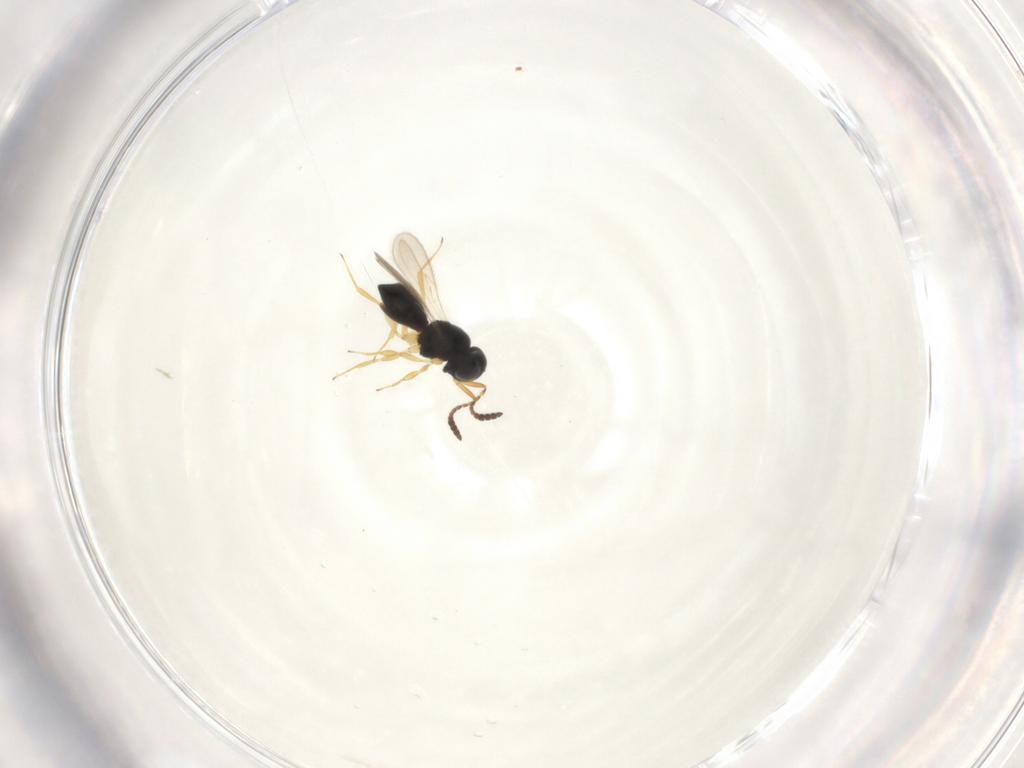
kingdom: Animalia
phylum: Arthropoda
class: Insecta
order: Hymenoptera
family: Scelionidae
